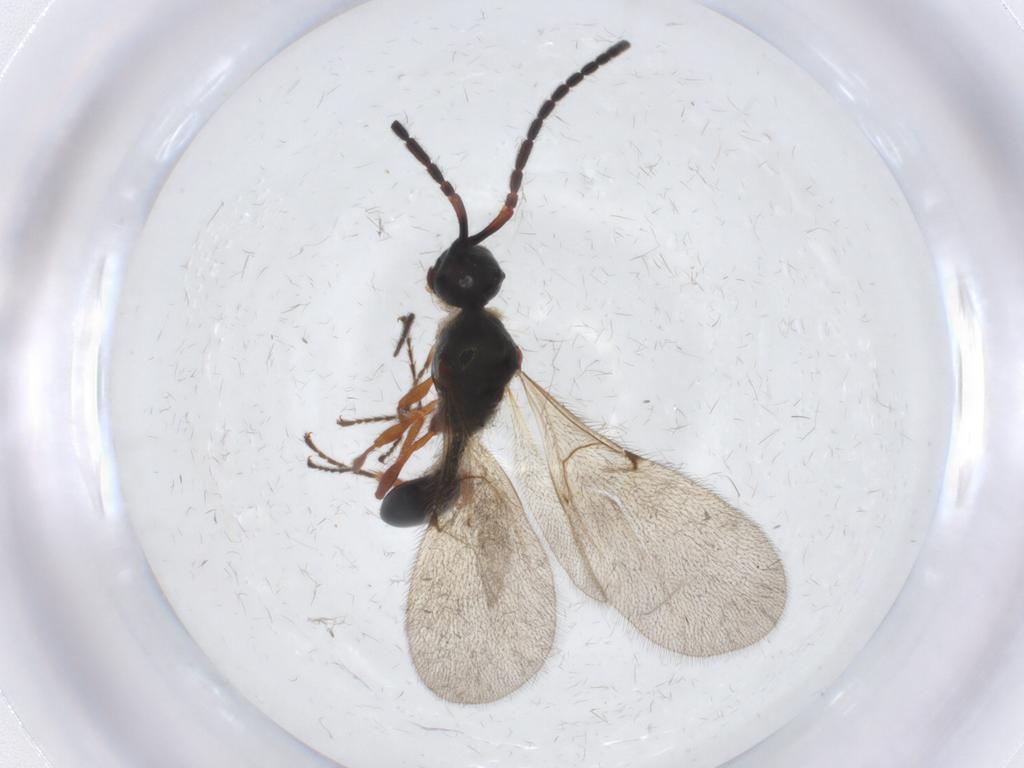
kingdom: Animalia
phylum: Arthropoda
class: Insecta
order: Hymenoptera
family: Diapriidae
